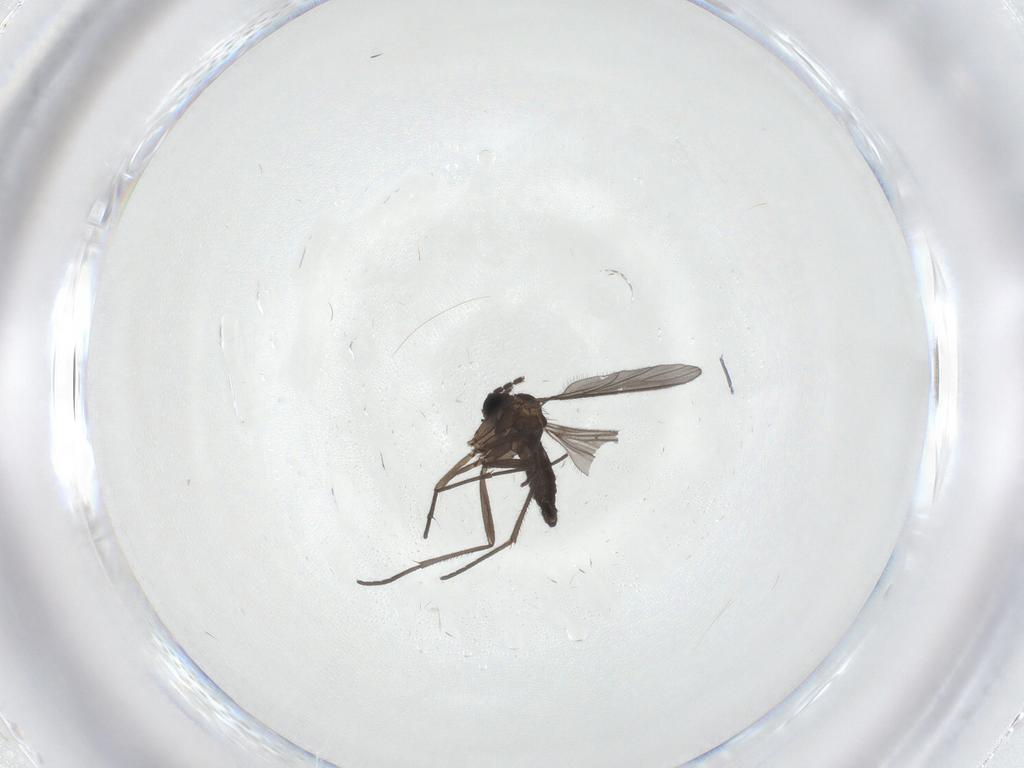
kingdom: Animalia
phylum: Arthropoda
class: Insecta
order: Diptera
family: Sciaridae
